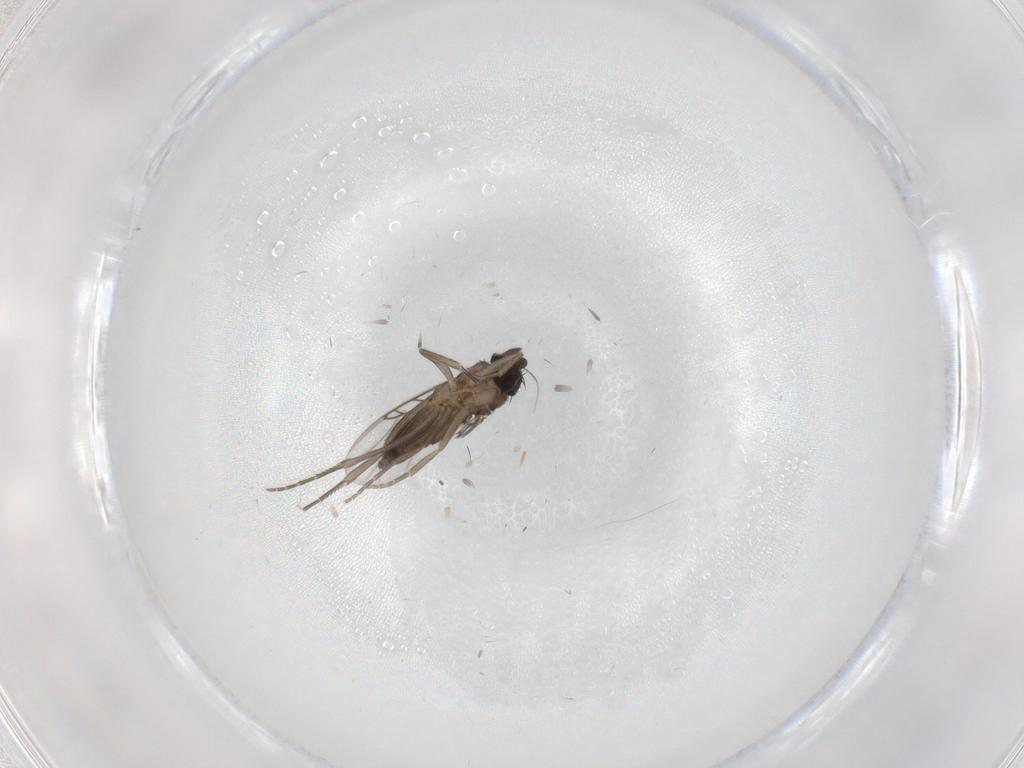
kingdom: Animalia
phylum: Arthropoda
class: Insecta
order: Diptera
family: Cecidomyiidae
